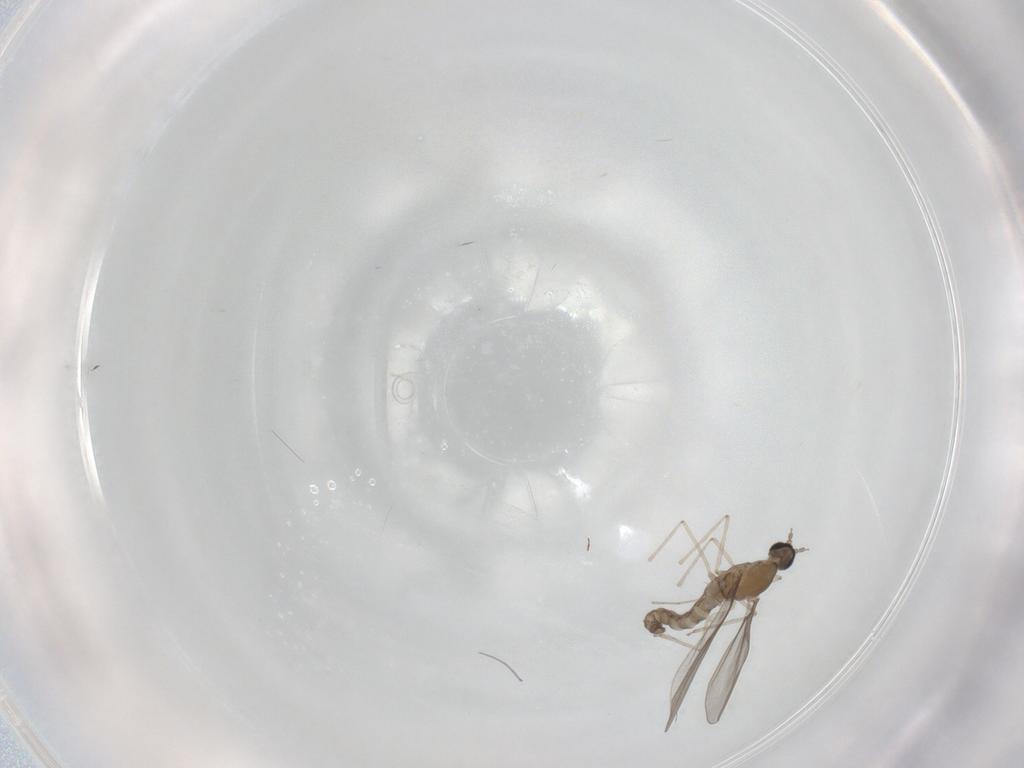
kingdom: Animalia
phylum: Arthropoda
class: Insecta
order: Diptera
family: Cecidomyiidae
